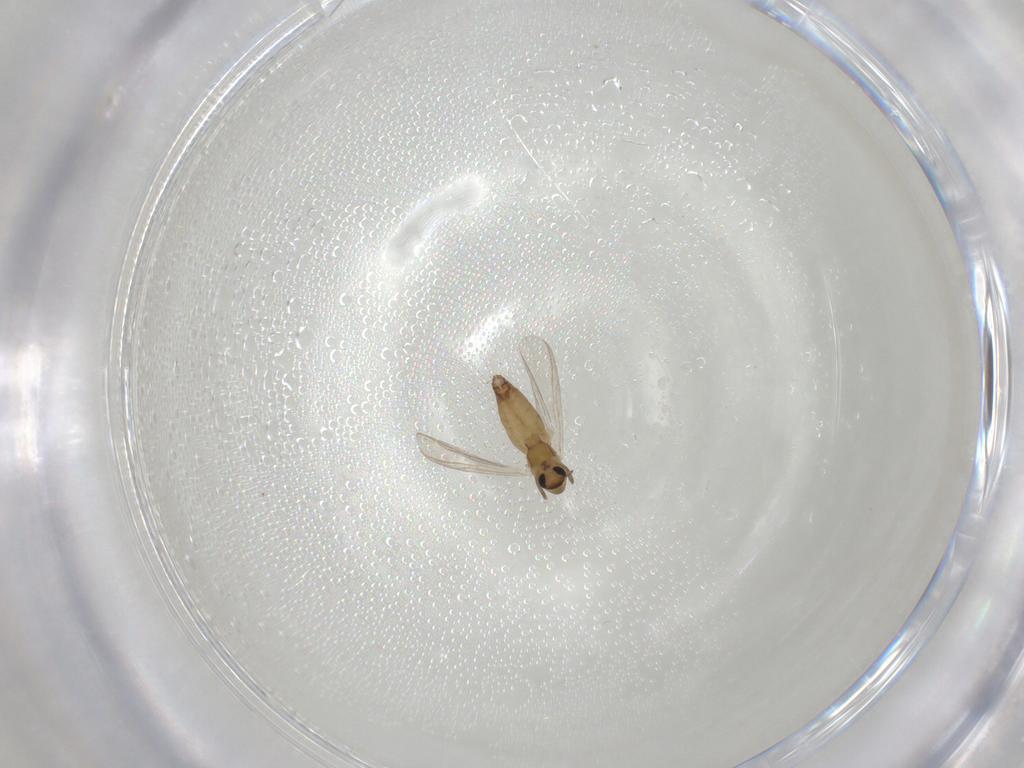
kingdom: Animalia
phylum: Arthropoda
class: Insecta
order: Diptera
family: Chironomidae
